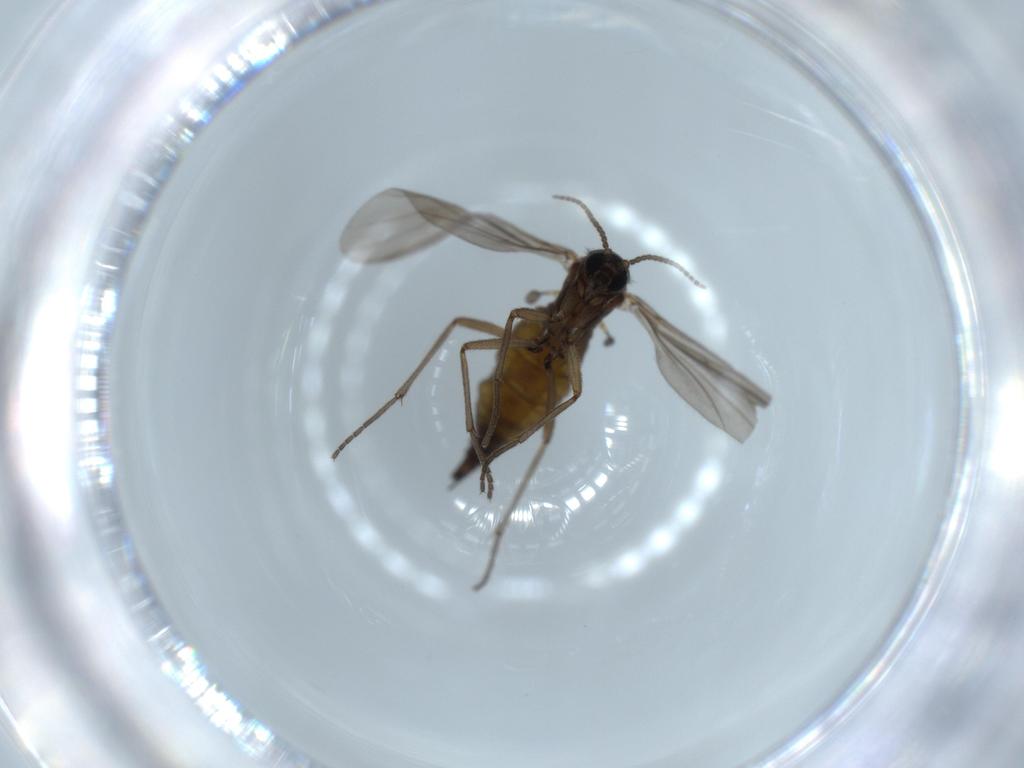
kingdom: Animalia
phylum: Arthropoda
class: Insecta
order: Diptera
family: Sciaridae
